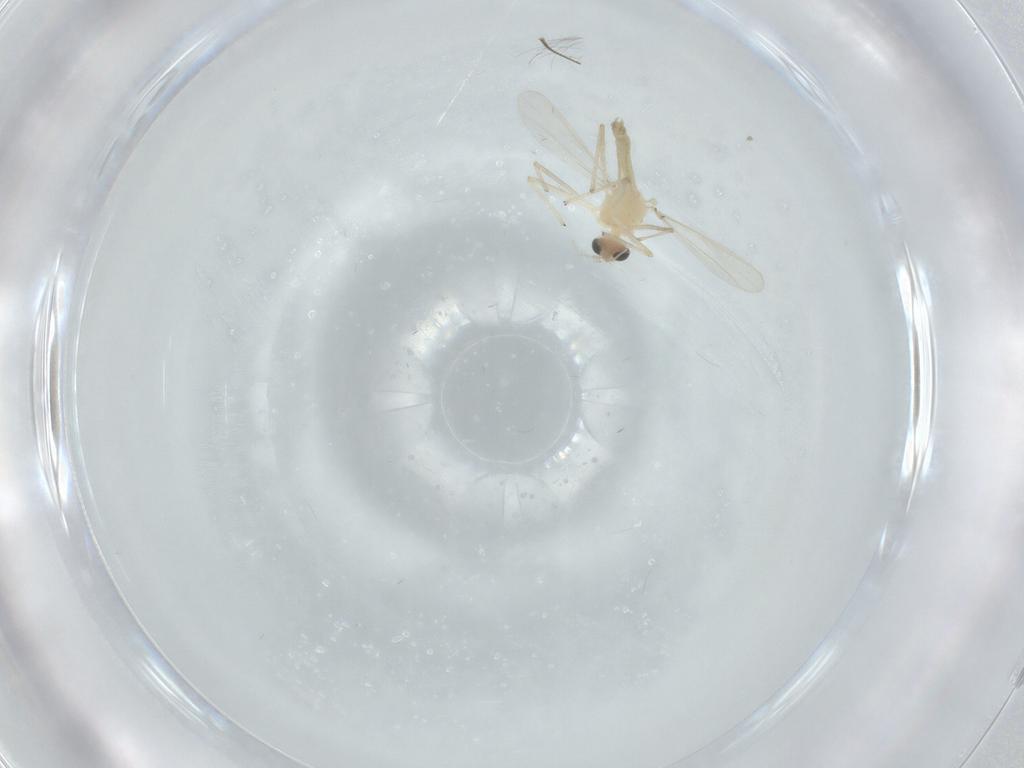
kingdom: Animalia
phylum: Arthropoda
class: Insecta
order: Diptera
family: Chironomidae
